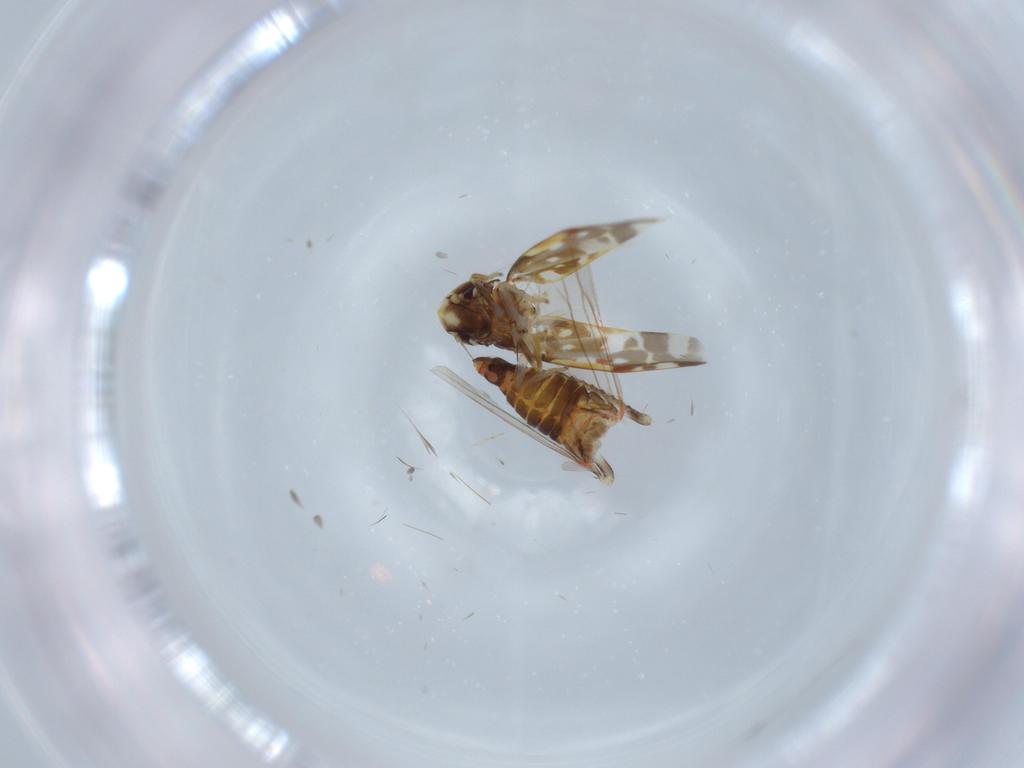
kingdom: Animalia
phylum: Arthropoda
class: Insecta
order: Hemiptera
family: Cicadellidae
